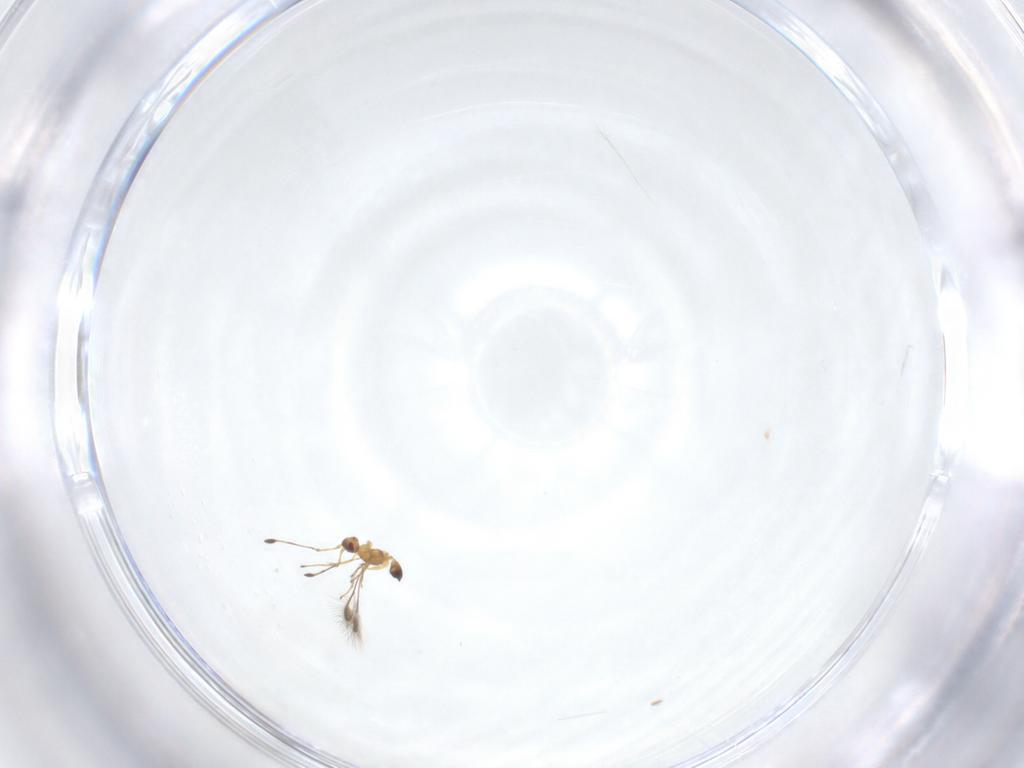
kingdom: Animalia
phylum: Arthropoda
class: Insecta
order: Hymenoptera
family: Mymaridae
